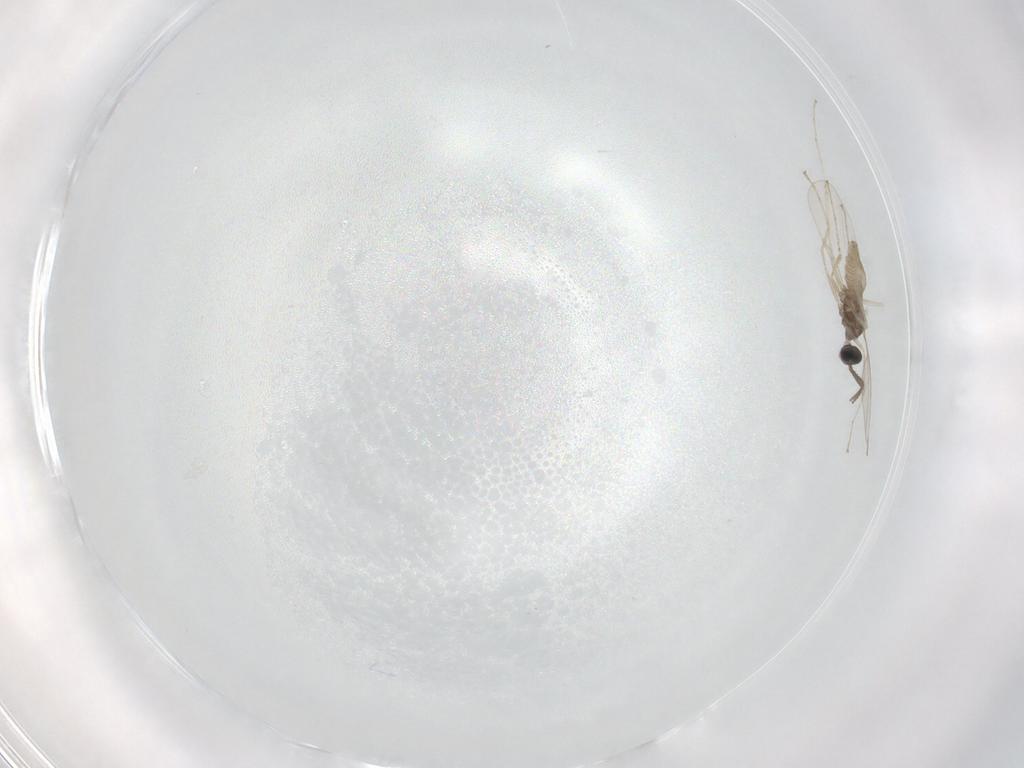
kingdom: Animalia
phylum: Arthropoda
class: Insecta
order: Diptera
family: Cecidomyiidae
